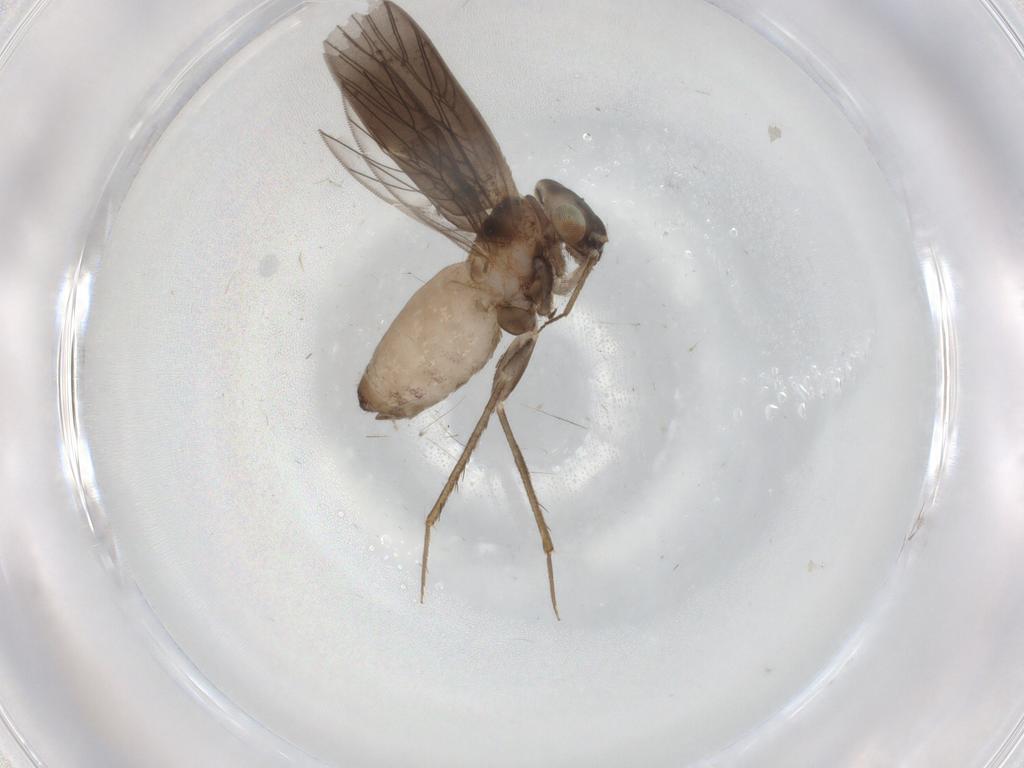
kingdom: Animalia
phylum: Arthropoda
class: Insecta
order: Psocodea
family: Lepidopsocidae
